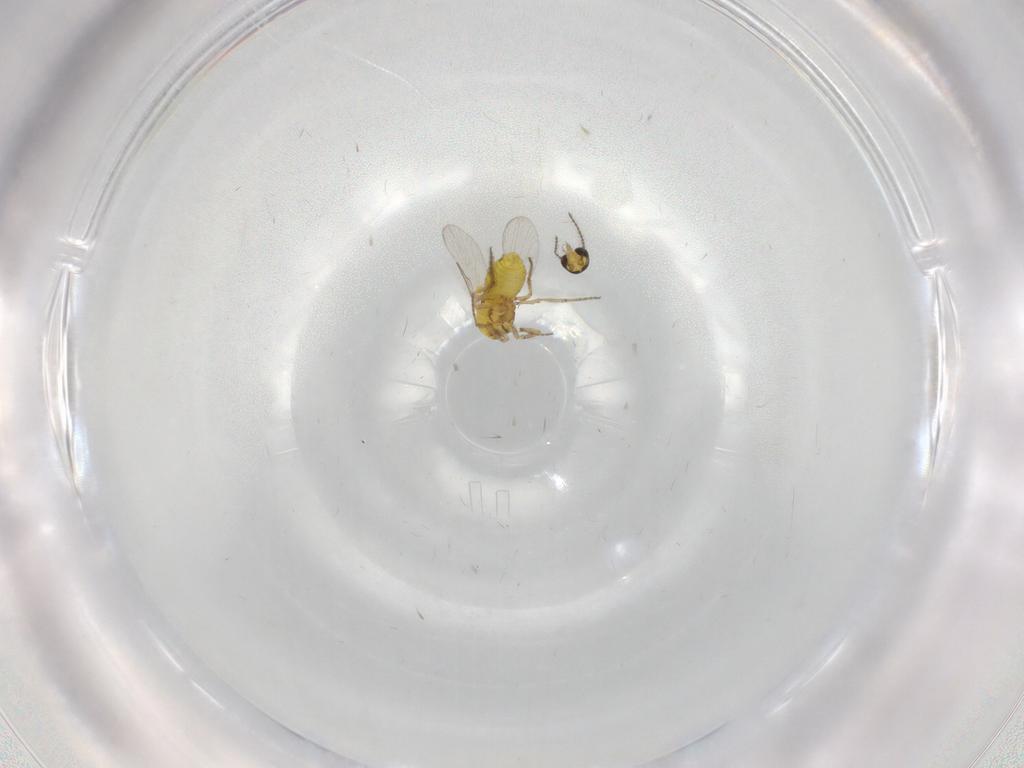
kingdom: Animalia
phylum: Arthropoda
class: Insecta
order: Diptera
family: Ceratopogonidae
